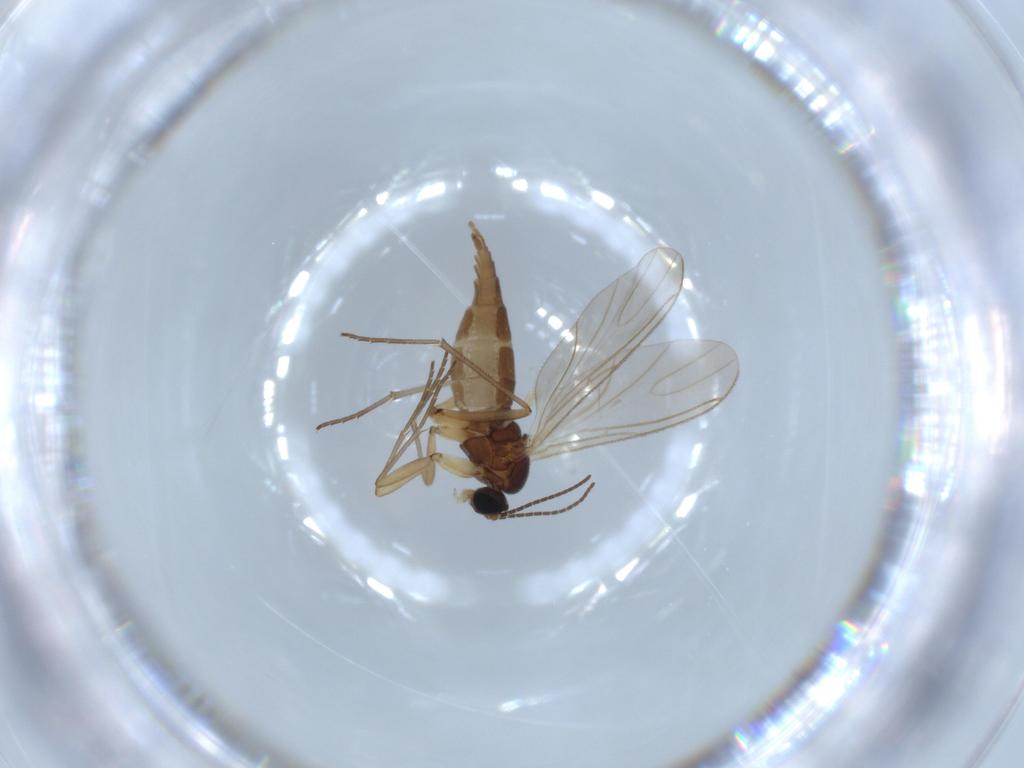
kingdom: Animalia
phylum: Arthropoda
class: Insecta
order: Diptera
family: Sciaridae
